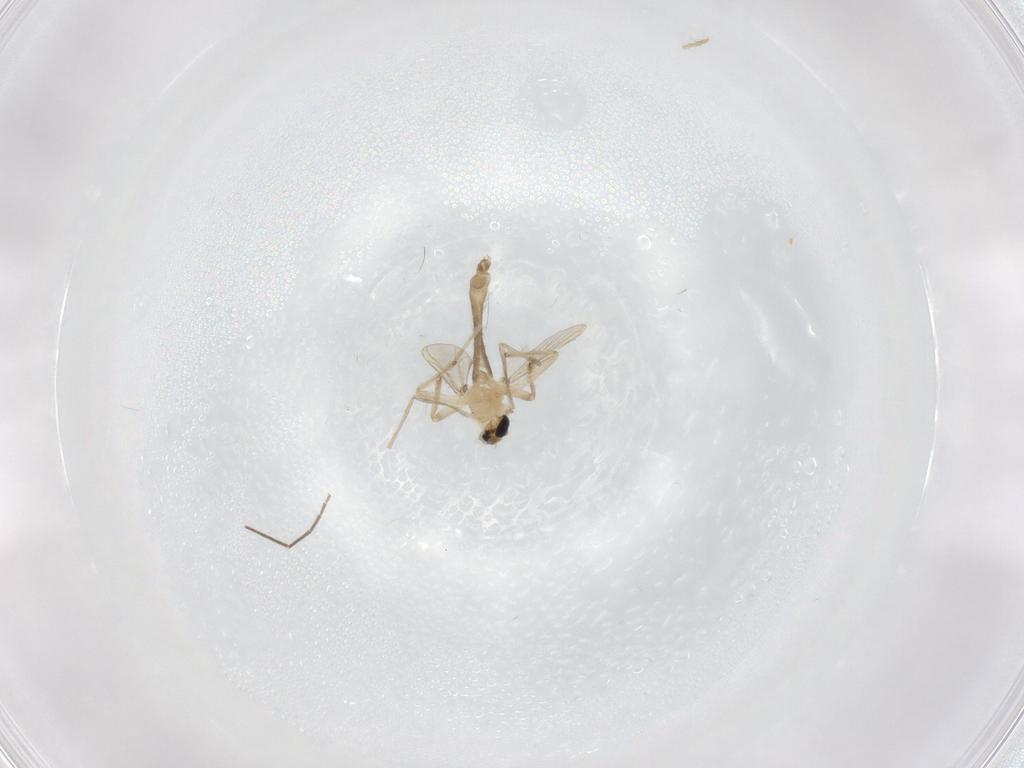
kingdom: Animalia
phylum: Arthropoda
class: Insecta
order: Diptera
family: Chironomidae
